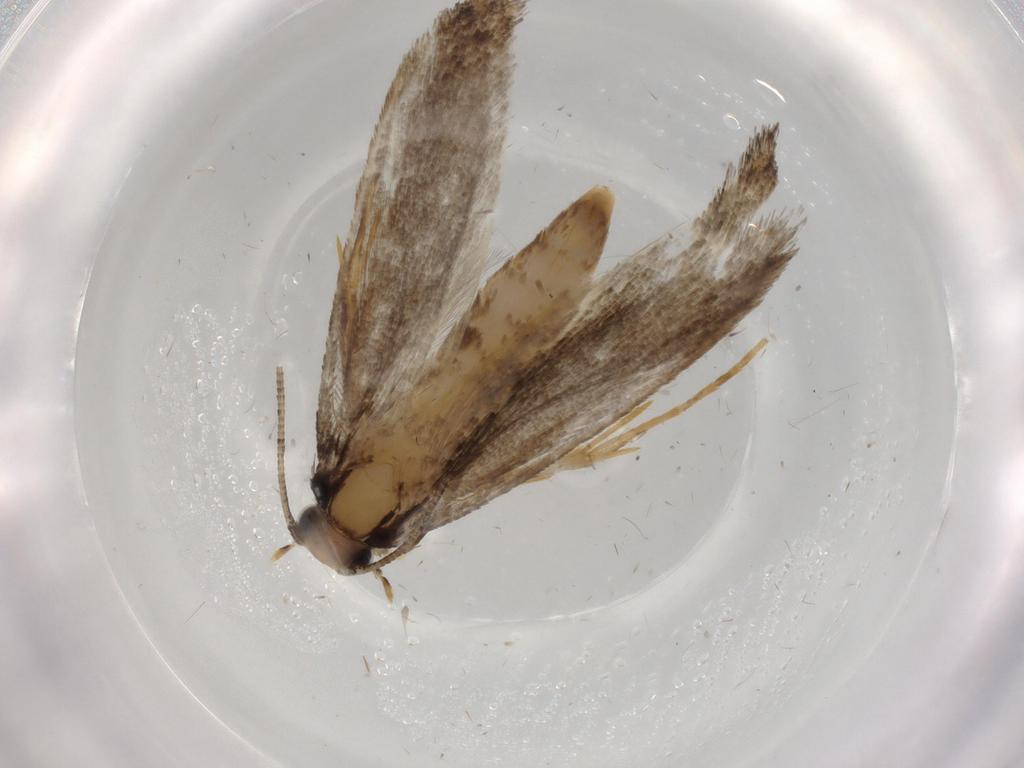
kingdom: Animalia
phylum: Arthropoda
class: Insecta
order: Lepidoptera
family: Tineidae
